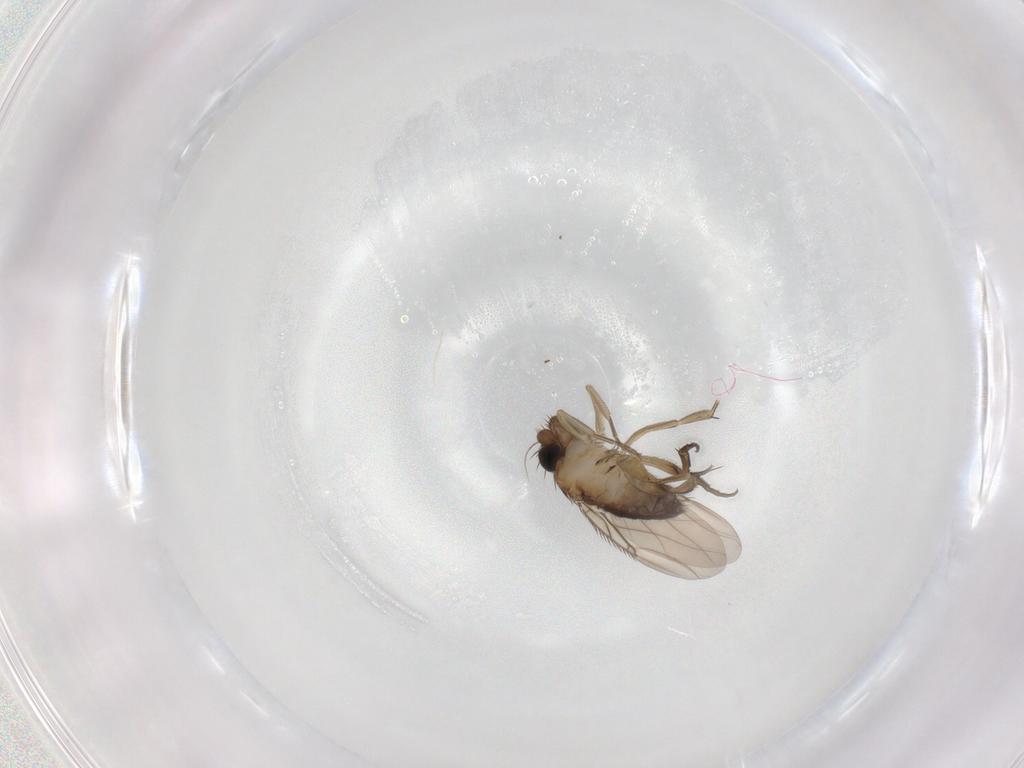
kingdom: Animalia
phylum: Arthropoda
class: Insecta
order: Diptera
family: Phoridae
